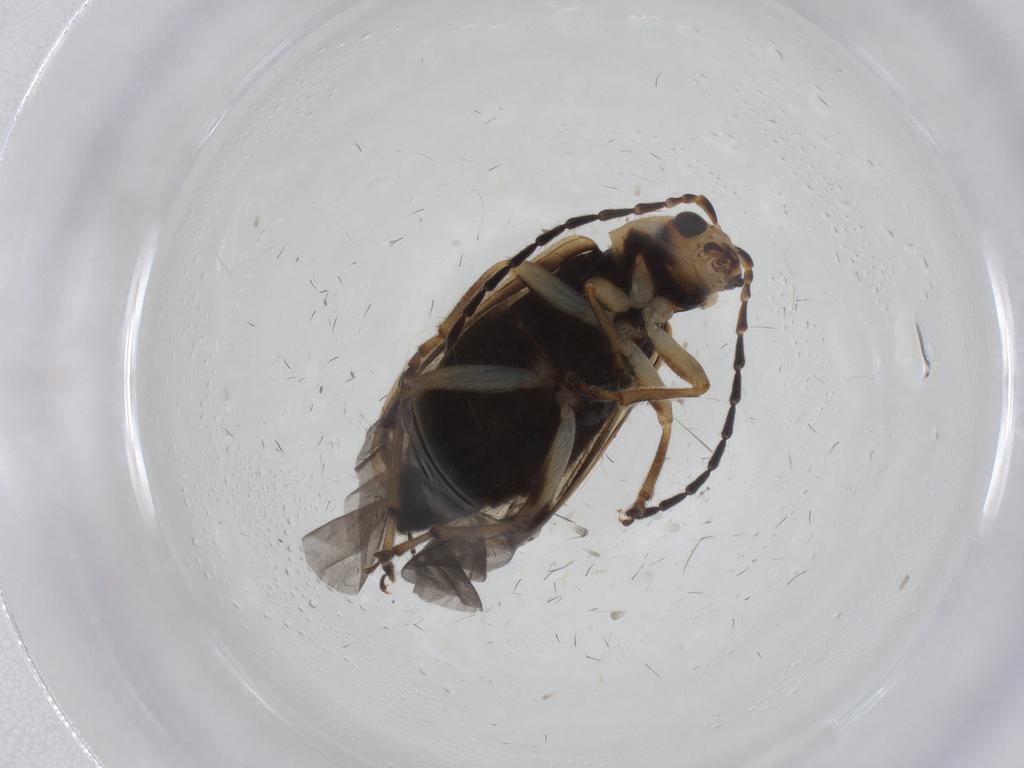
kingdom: Animalia
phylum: Arthropoda
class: Insecta
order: Coleoptera
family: Chrysomelidae
